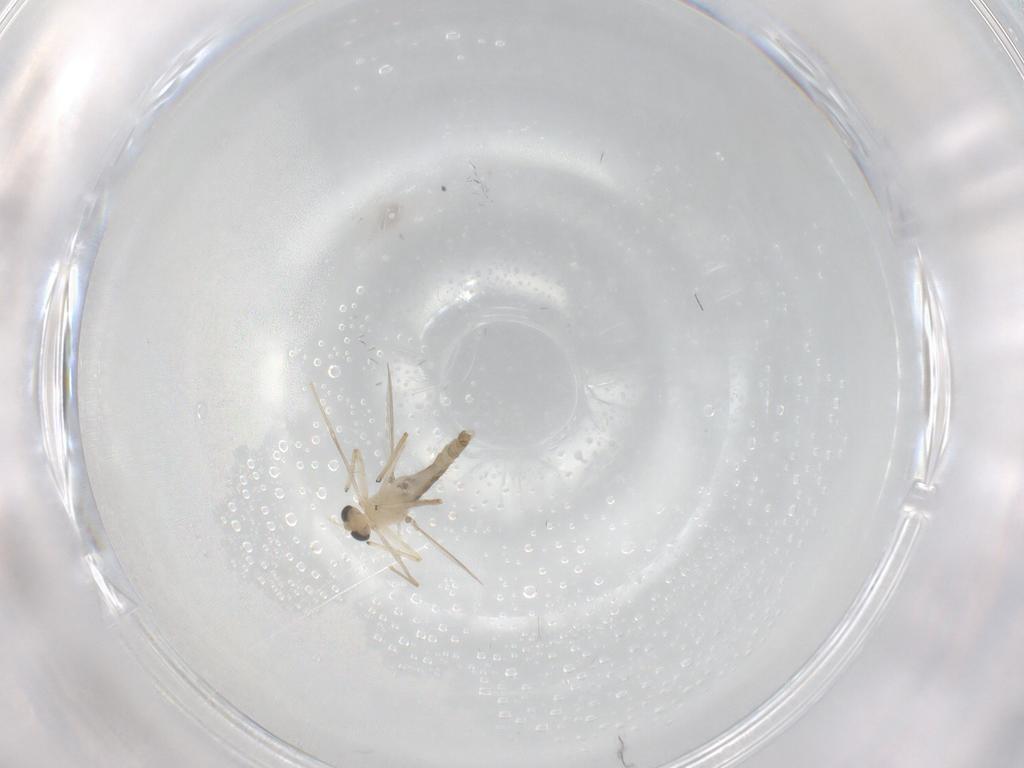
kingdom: Animalia
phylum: Arthropoda
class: Insecta
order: Diptera
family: Chironomidae
